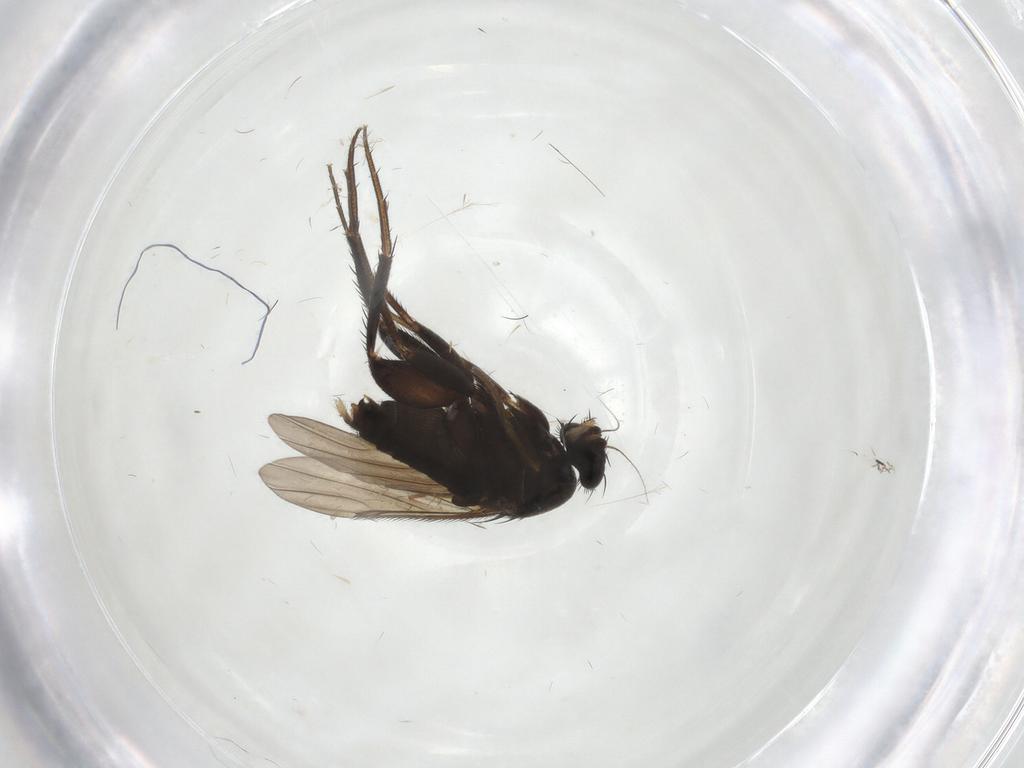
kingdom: Animalia
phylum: Arthropoda
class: Insecta
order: Diptera
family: Phoridae
